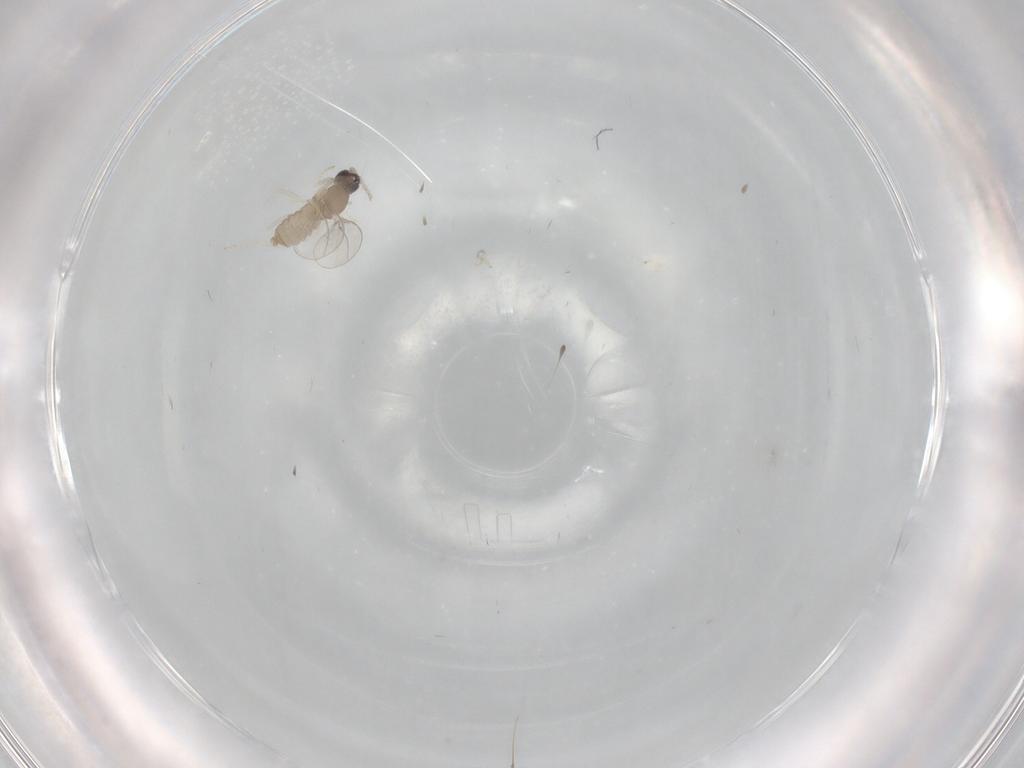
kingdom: Animalia
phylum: Arthropoda
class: Insecta
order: Diptera
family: Cecidomyiidae
